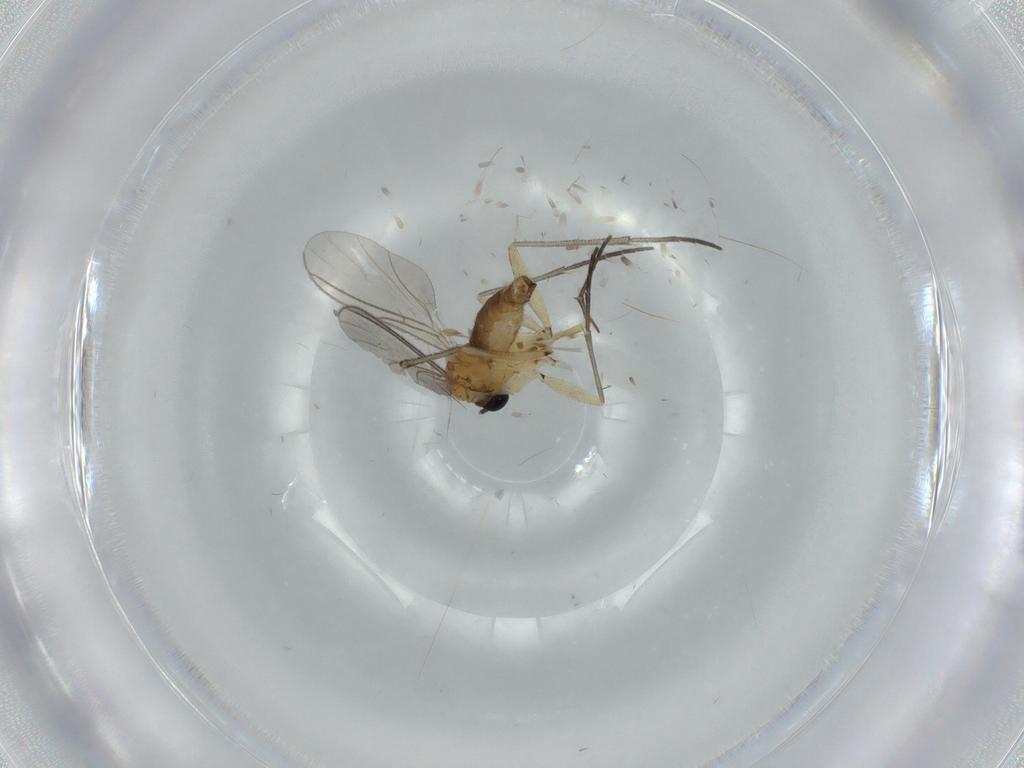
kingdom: Animalia
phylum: Arthropoda
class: Insecta
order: Diptera
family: Sciaridae
